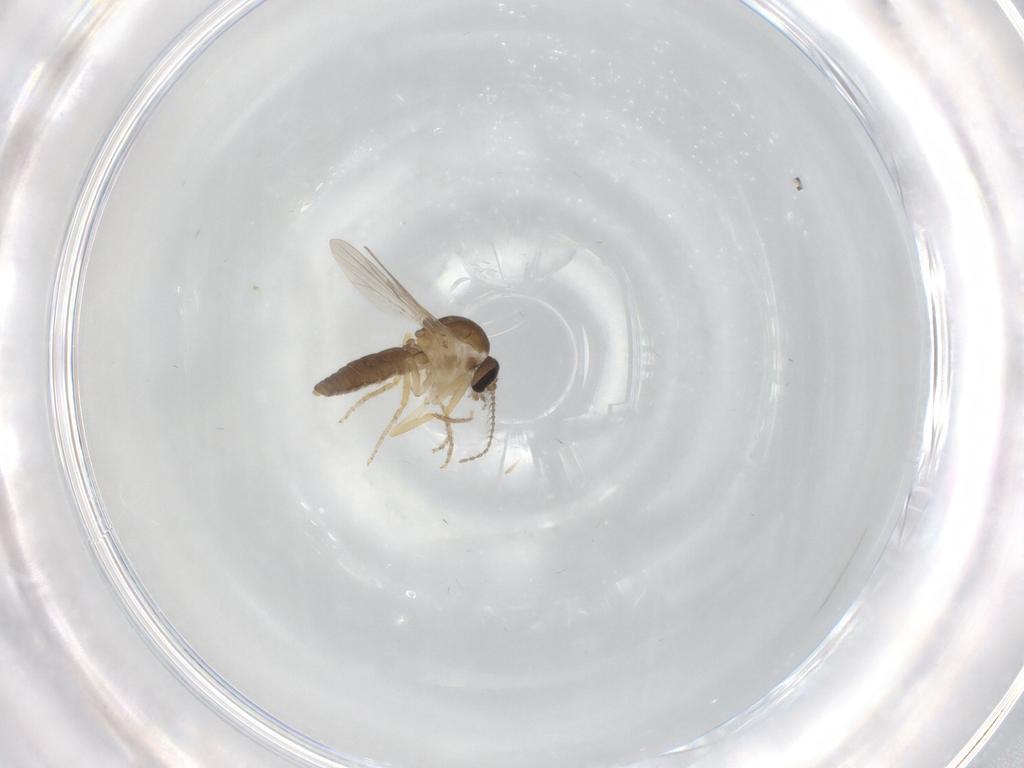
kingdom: Animalia
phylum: Arthropoda
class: Insecta
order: Diptera
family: Ceratopogonidae
